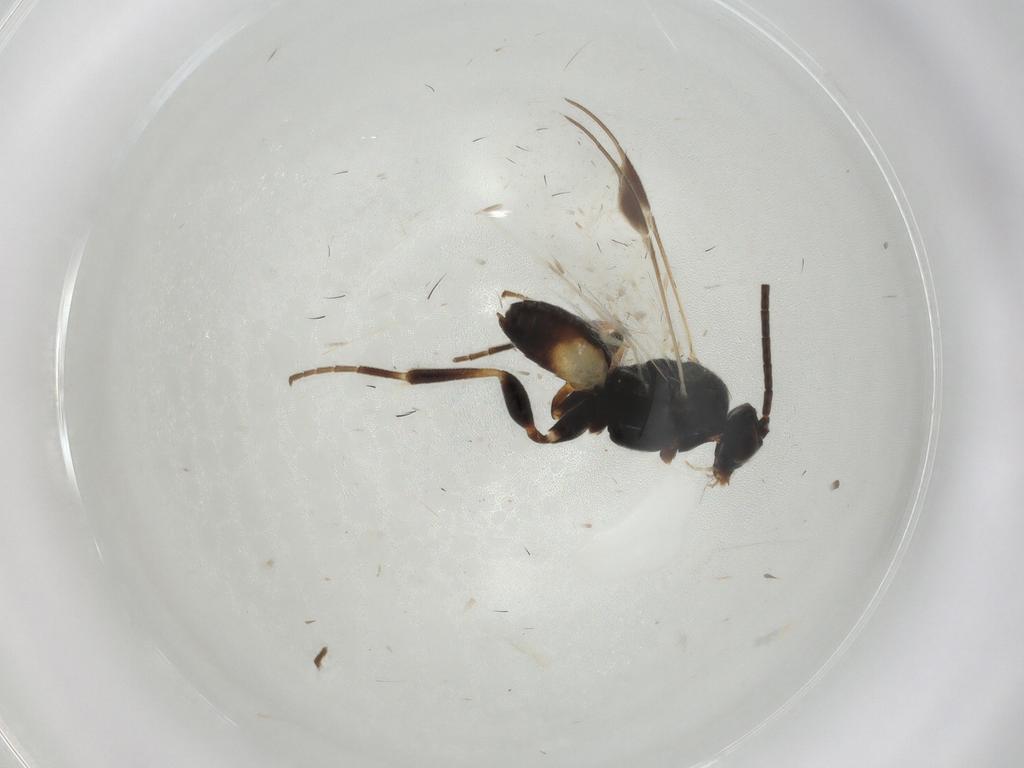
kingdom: Animalia
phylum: Arthropoda
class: Insecta
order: Hymenoptera
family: Braconidae
